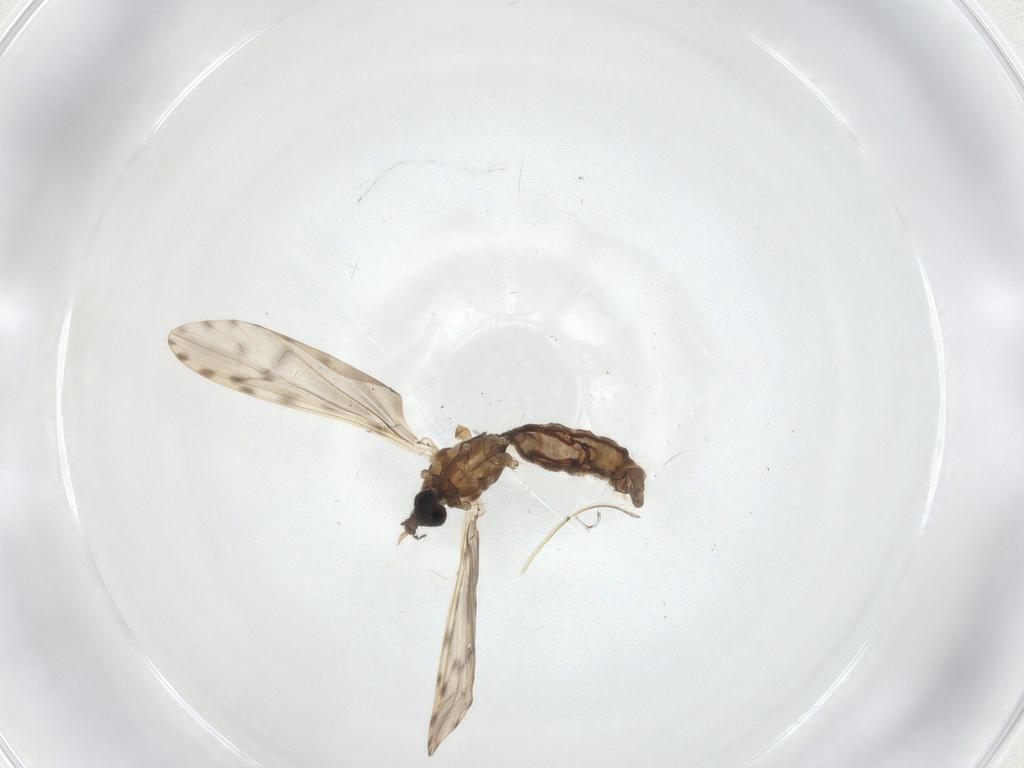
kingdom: Animalia
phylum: Arthropoda
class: Insecta
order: Diptera
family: Limoniidae
